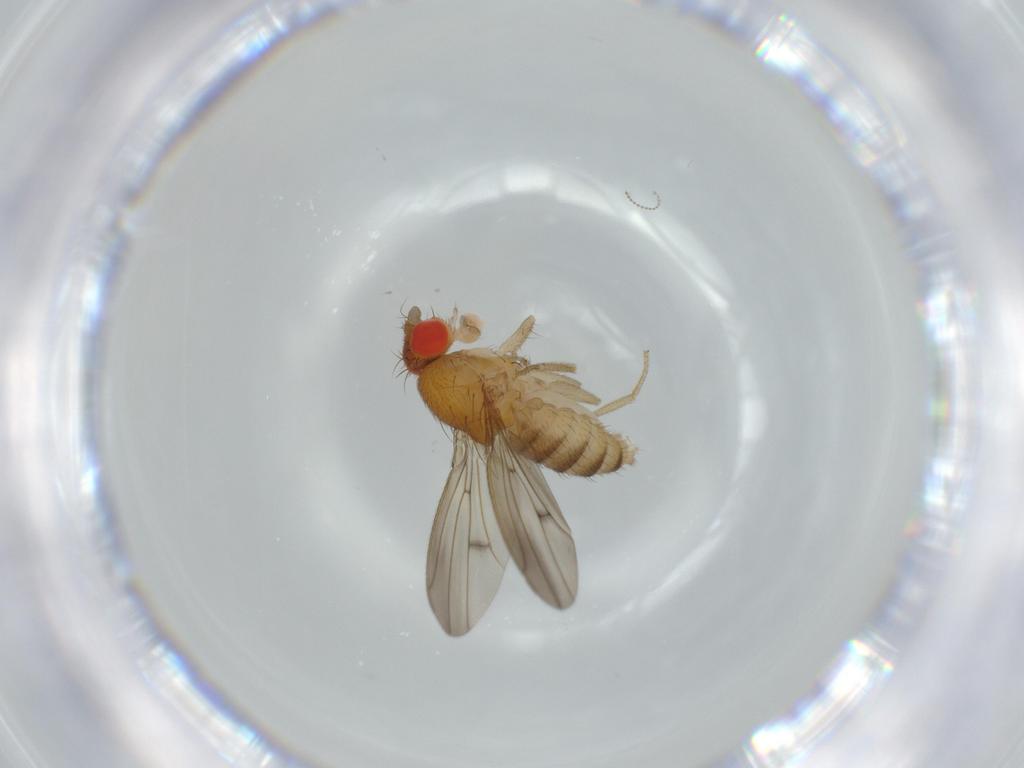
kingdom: Animalia
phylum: Arthropoda
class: Insecta
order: Diptera
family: Drosophilidae
